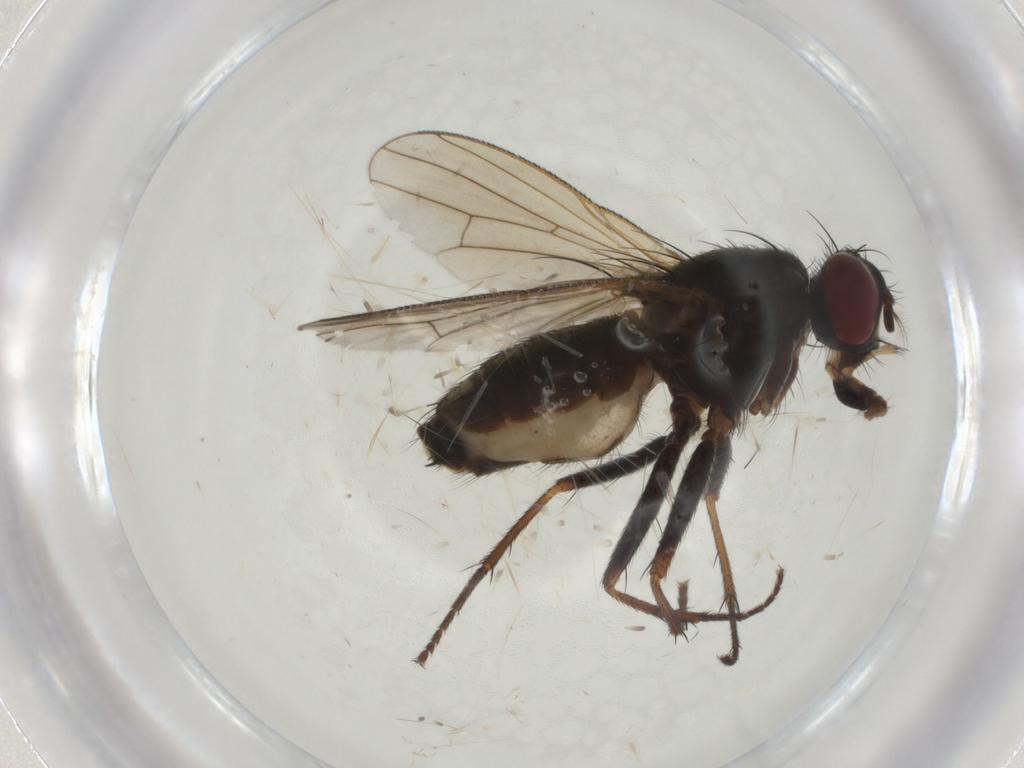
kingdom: Animalia
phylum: Arthropoda
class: Insecta
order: Diptera
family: Muscidae
